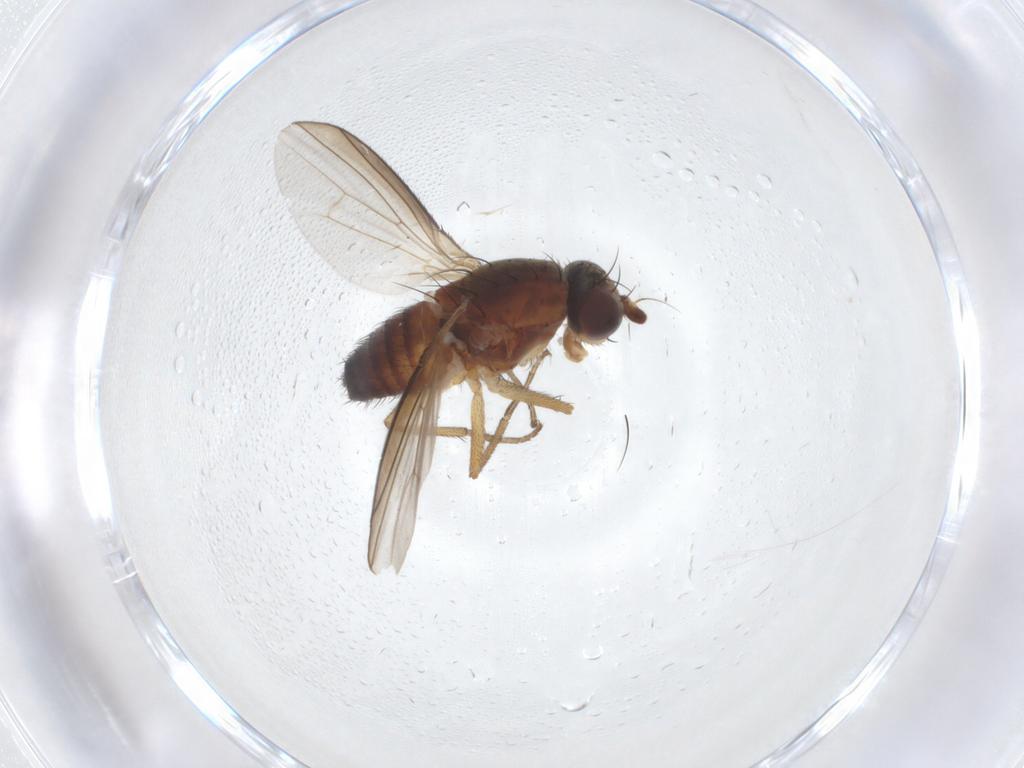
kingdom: Animalia
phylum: Arthropoda
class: Insecta
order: Diptera
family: Heleomyzidae
